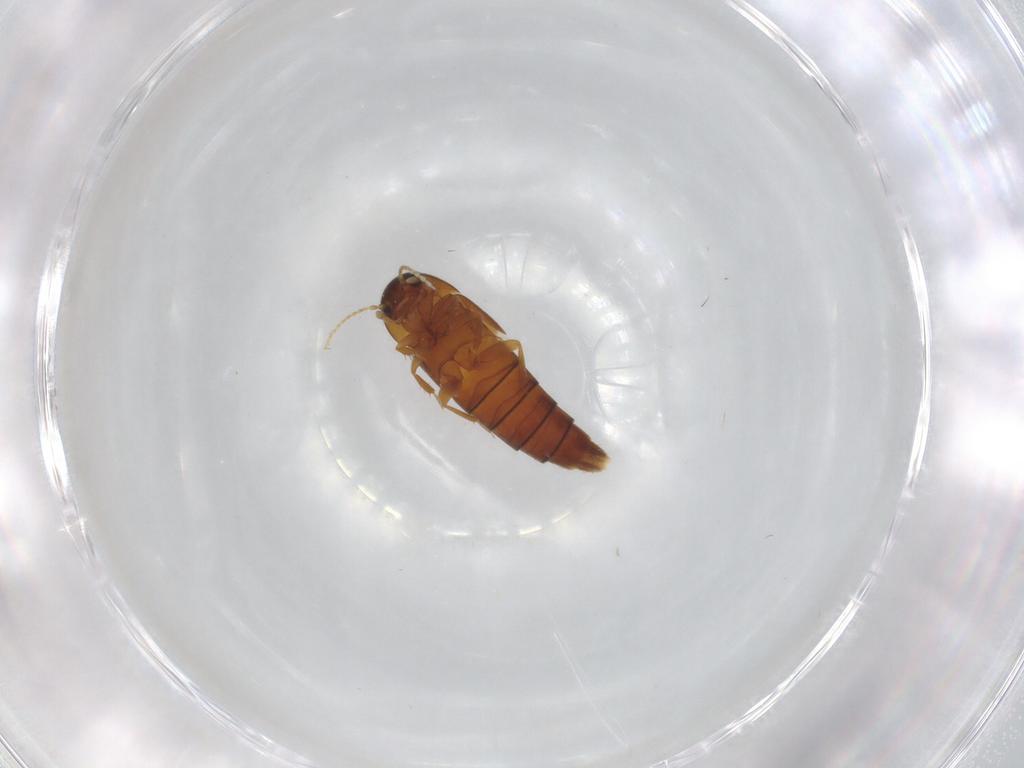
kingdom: Animalia
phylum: Arthropoda
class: Insecta
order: Coleoptera
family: Staphylinidae
